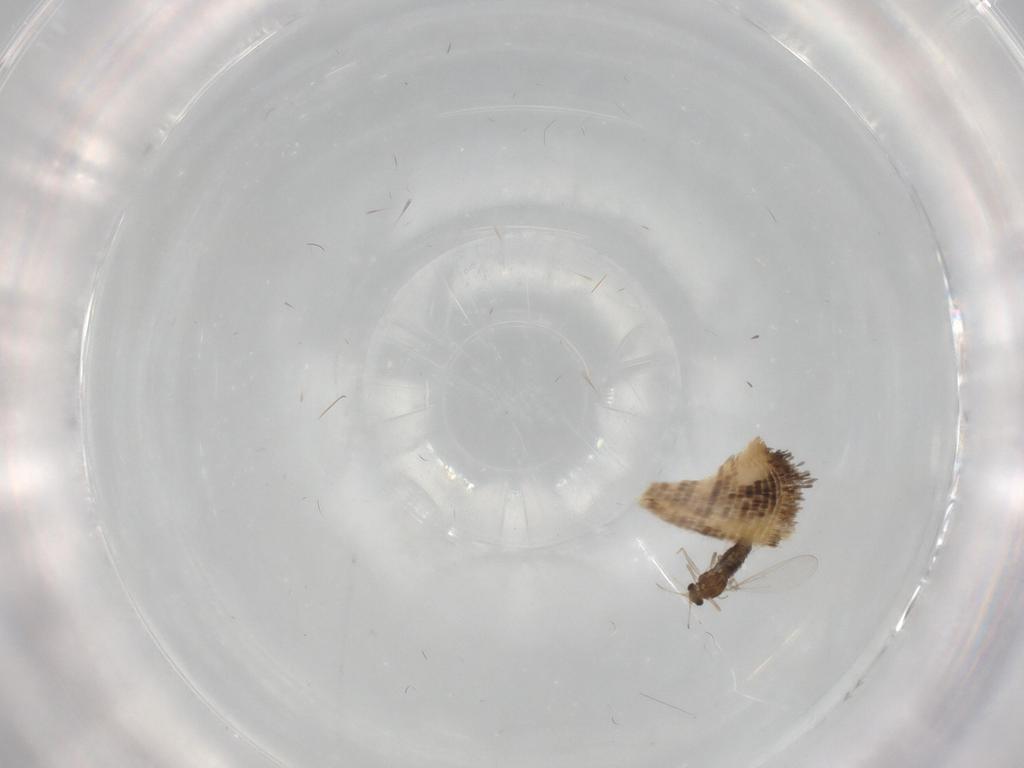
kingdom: Animalia
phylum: Arthropoda
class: Insecta
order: Diptera
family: Chironomidae
